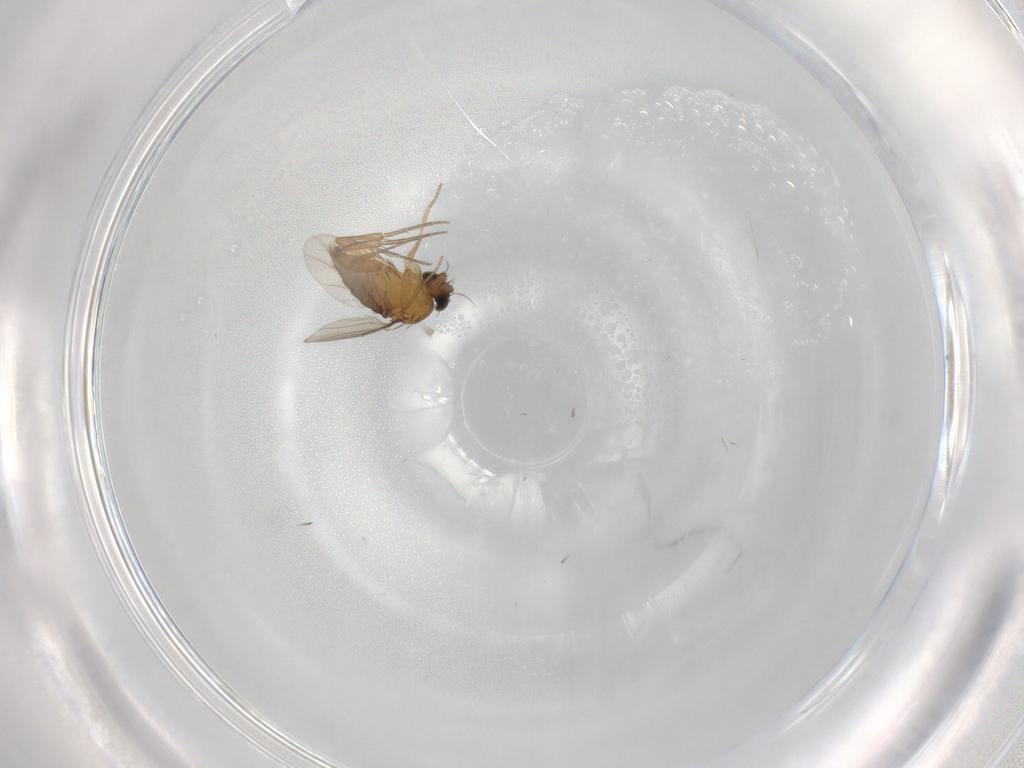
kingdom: Animalia
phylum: Arthropoda
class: Insecta
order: Diptera
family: Phoridae
